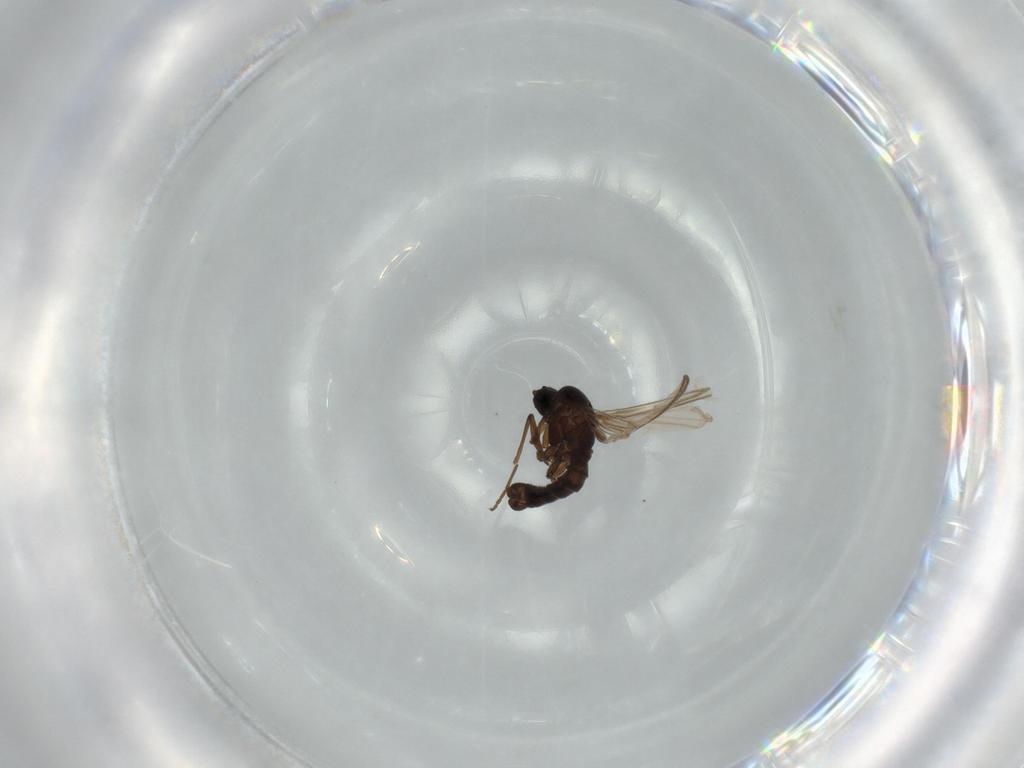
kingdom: Animalia
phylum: Arthropoda
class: Insecta
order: Diptera
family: Sciaridae
